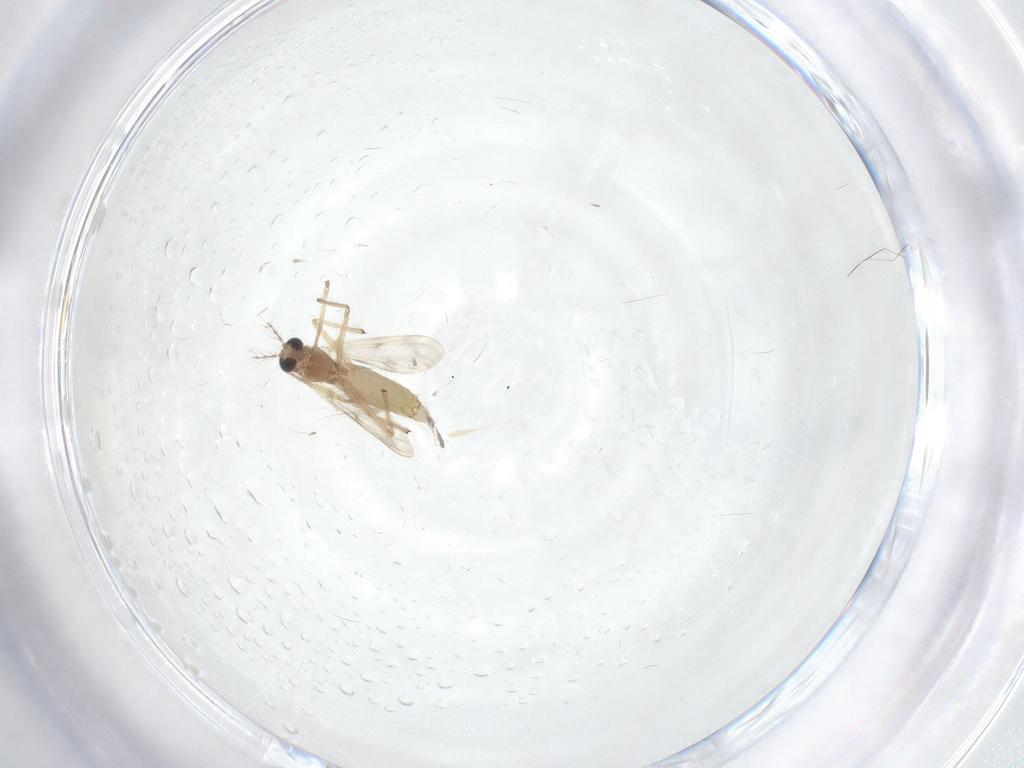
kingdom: Animalia
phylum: Arthropoda
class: Insecta
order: Diptera
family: Chironomidae
